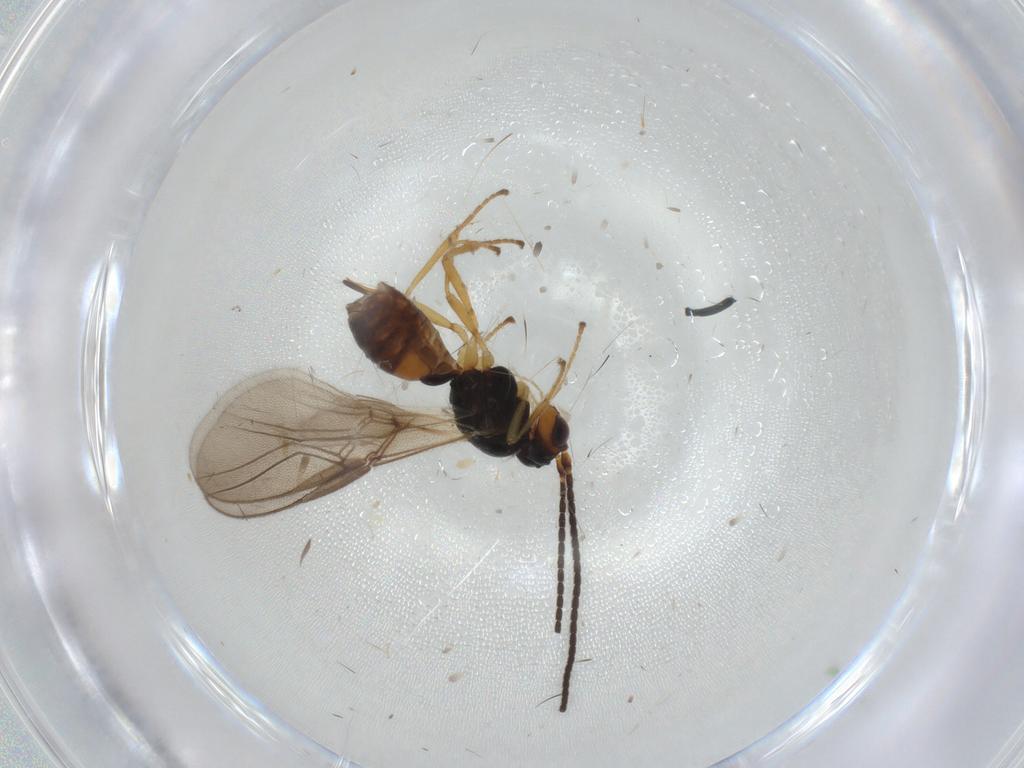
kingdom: Animalia
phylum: Arthropoda
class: Insecta
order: Hymenoptera
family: Braconidae
